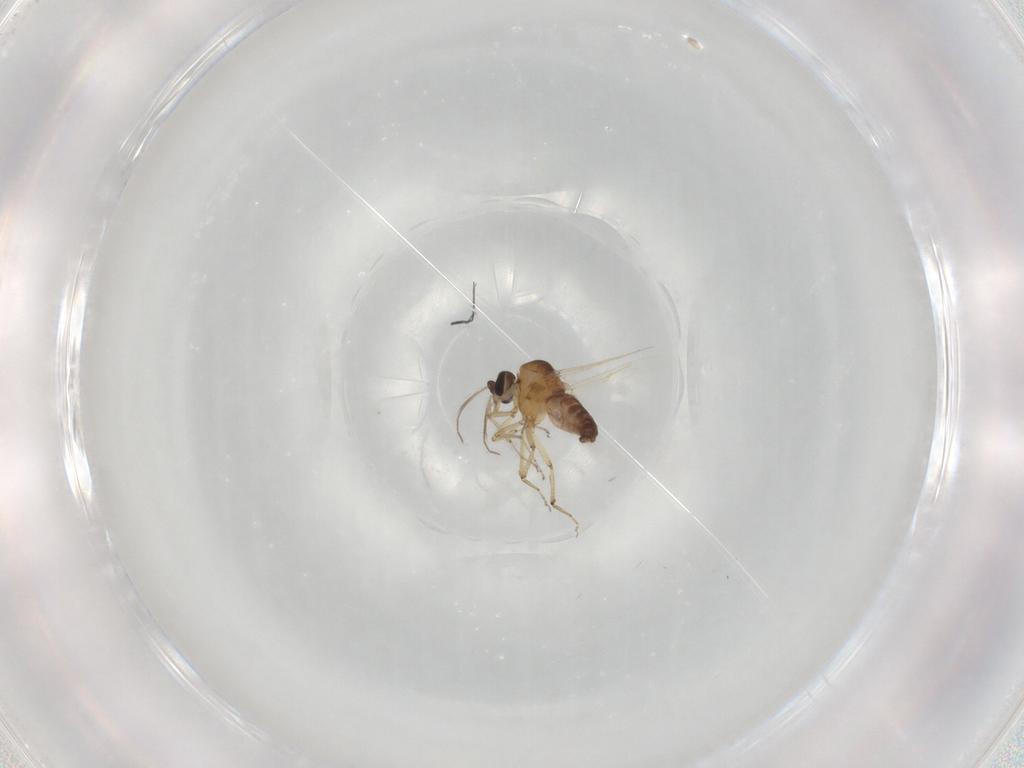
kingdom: Animalia
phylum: Arthropoda
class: Insecta
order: Diptera
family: Ceratopogonidae
